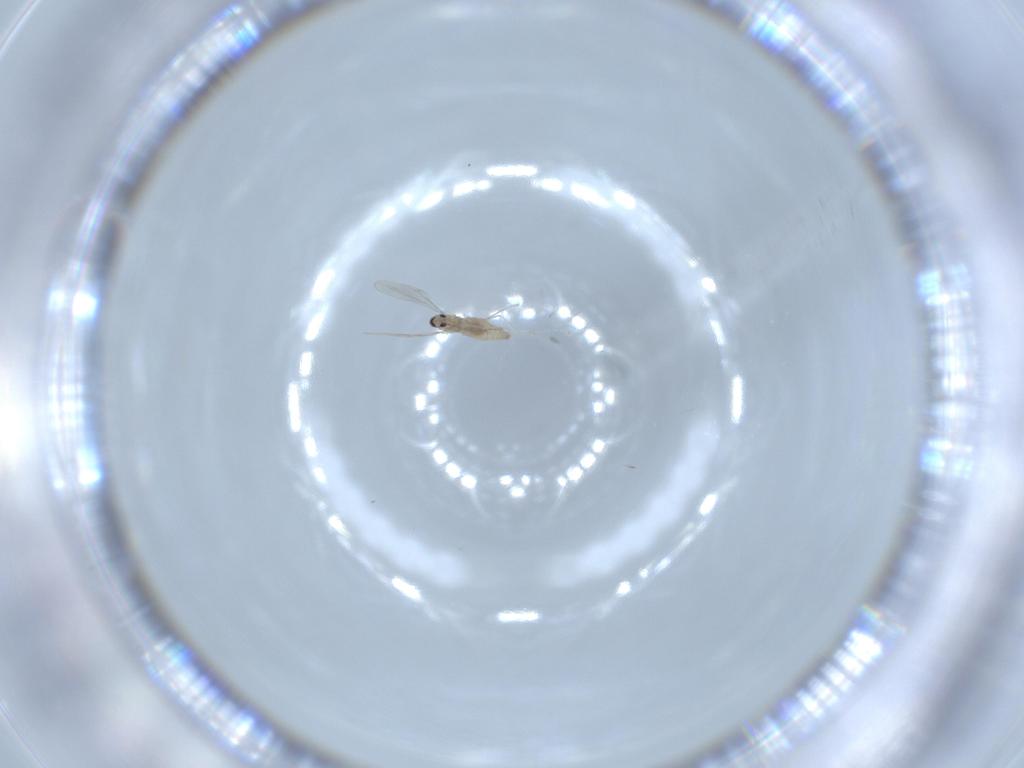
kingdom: Animalia
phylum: Arthropoda
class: Insecta
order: Diptera
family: Cecidomyiidae
